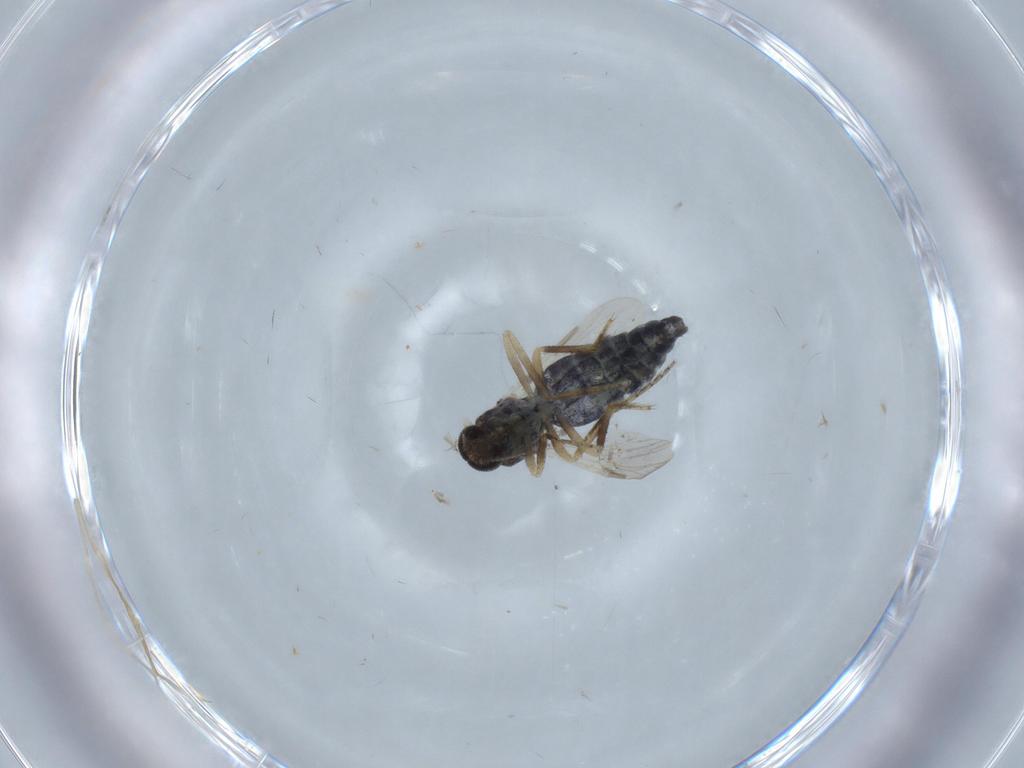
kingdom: Animalia
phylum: Arthropoda
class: Insecta
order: Diptera
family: Ceratopogonidae
